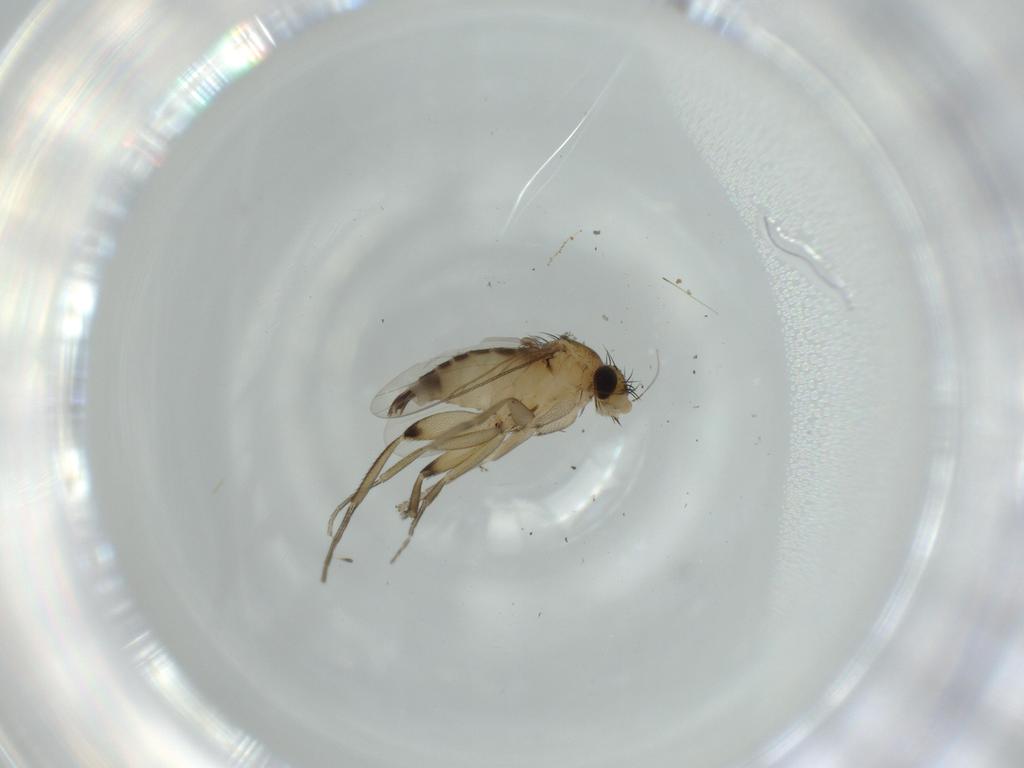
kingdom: Animalia
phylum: Arthropoda
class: Insecta
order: Diptera
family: Phoridae
